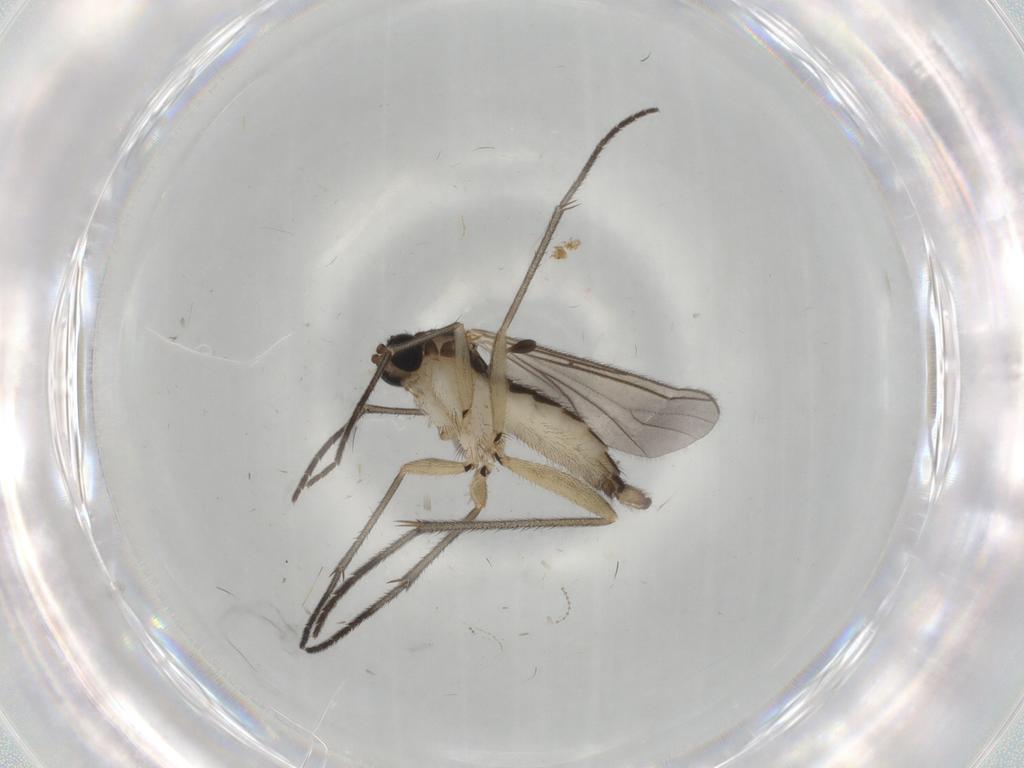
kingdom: Animalia
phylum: Arthropoda
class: Insecta
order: Diptera
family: Sciaridae
